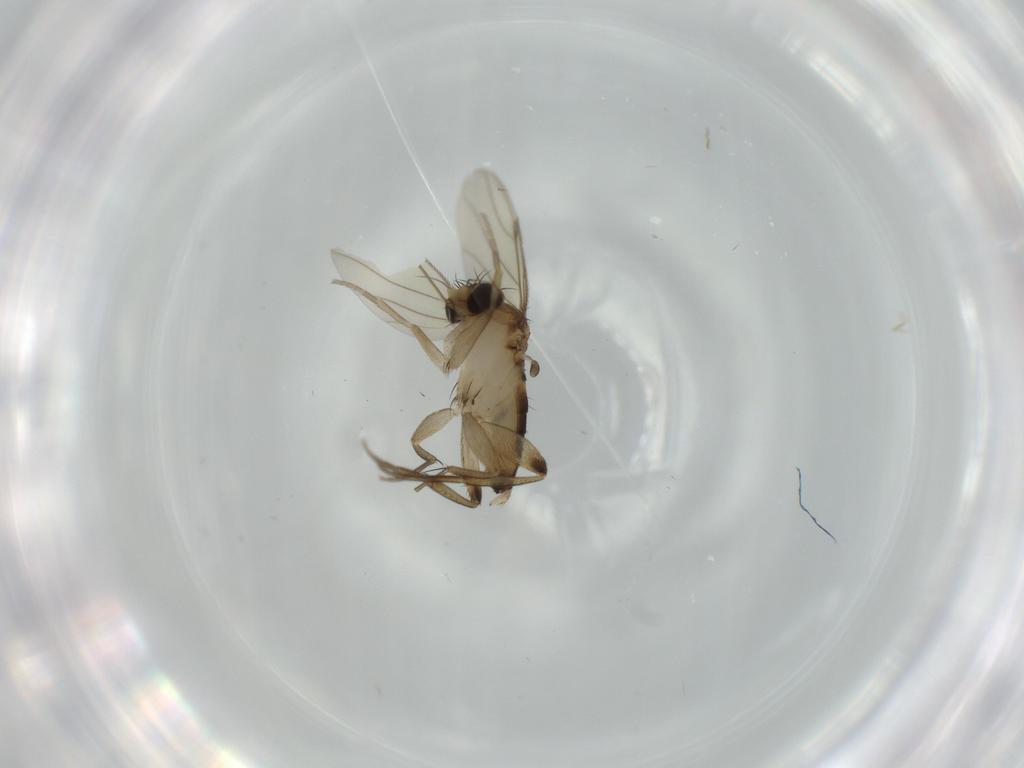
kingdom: Animalia
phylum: Arthropoda
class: Insecta
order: Diptera
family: Phoridae
